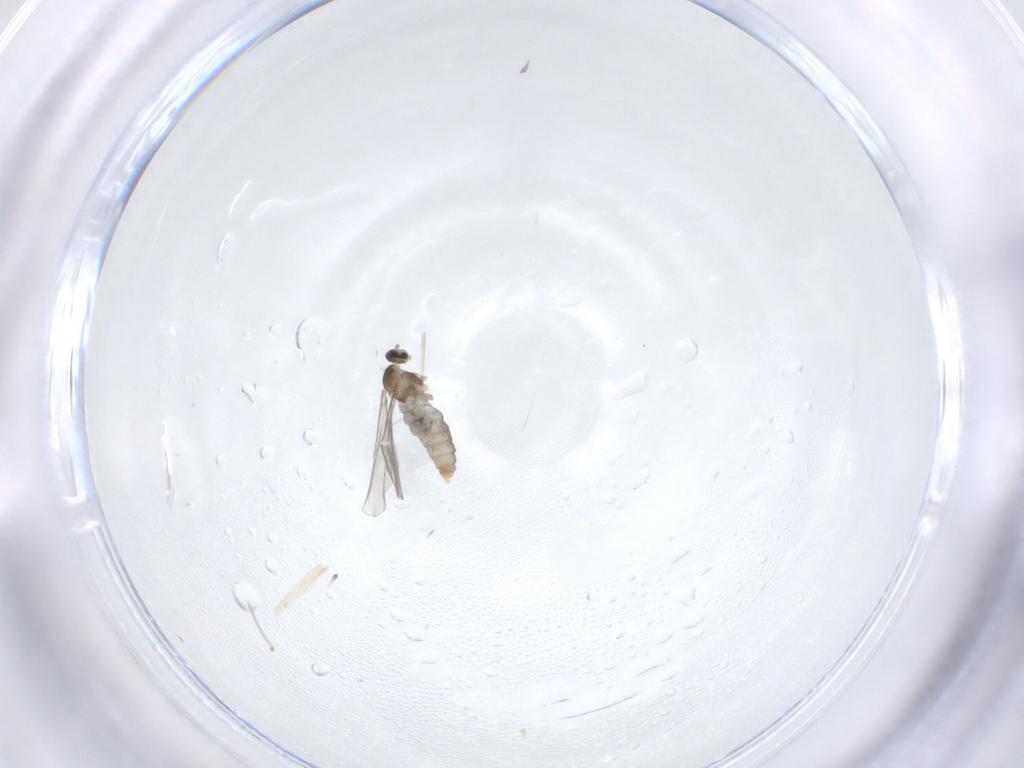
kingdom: Animalia
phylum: Arthropoda
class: Insecta
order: Diptera
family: Cecidomyiidae
